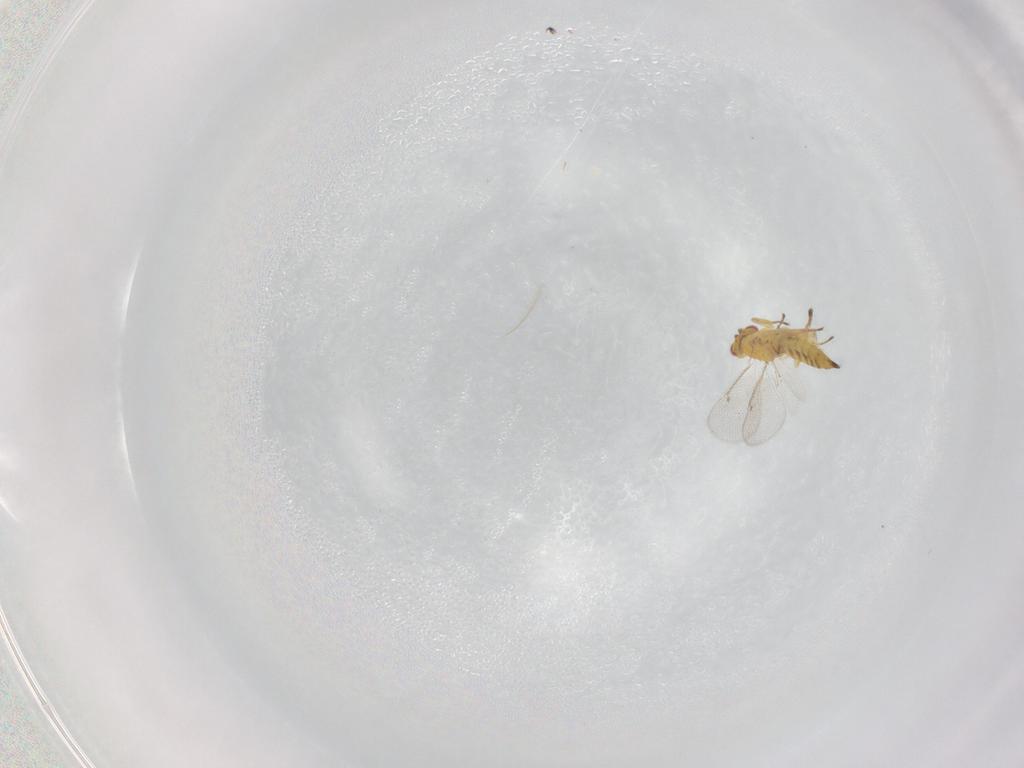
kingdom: Animalia
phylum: Arthropoda
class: Insecta
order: Hymenoptera
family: Eulophidae
